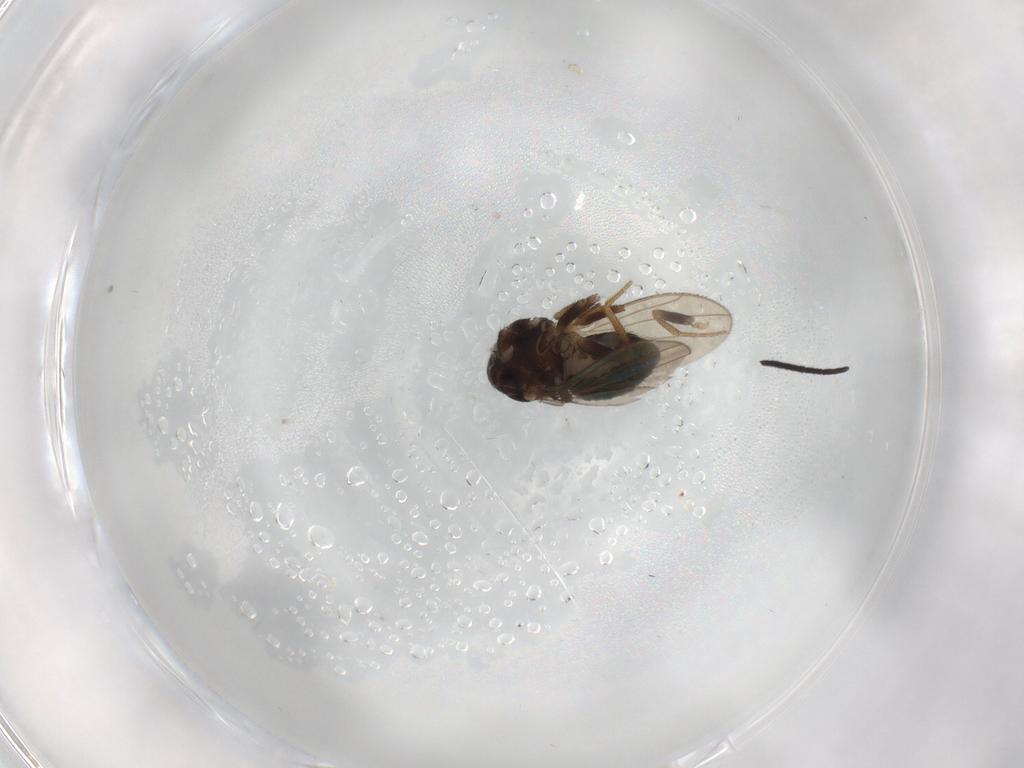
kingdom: Animalia
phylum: Arthropoda
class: Insecta
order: Diptera
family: Drosophilidae
